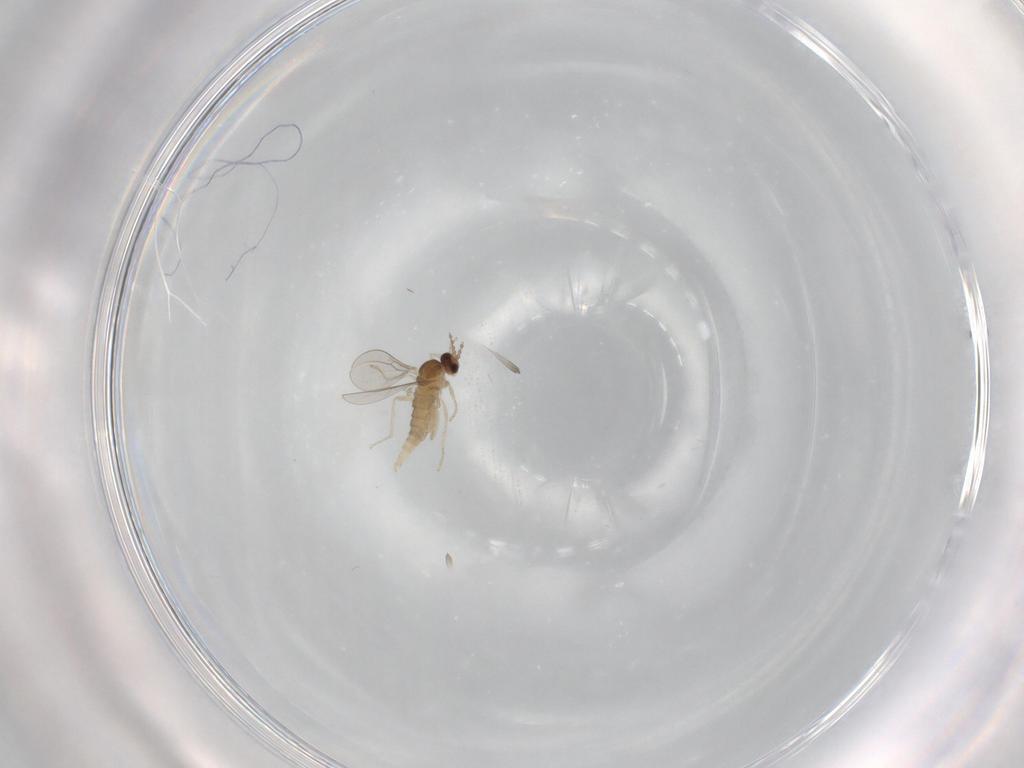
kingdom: Animalia
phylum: Arthropoda
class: Insecta
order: Diptera
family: Cecidomyiidae
